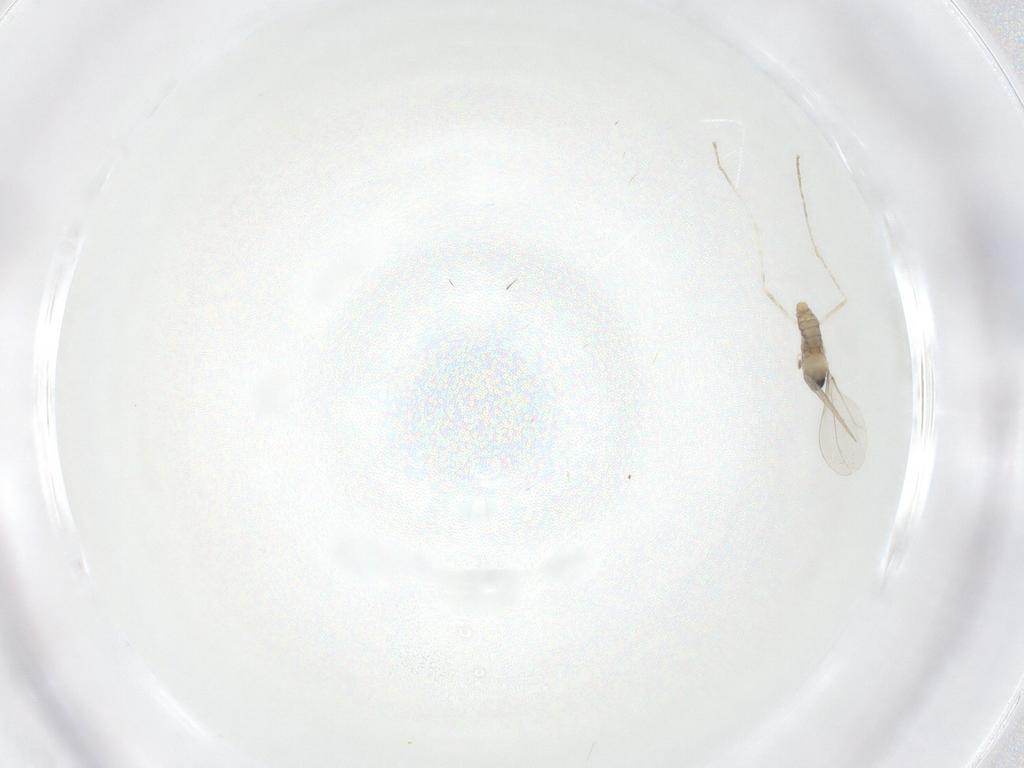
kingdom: Animalia
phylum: Arthropoda
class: Insecta
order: Diptera
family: Cecidomyiidae
